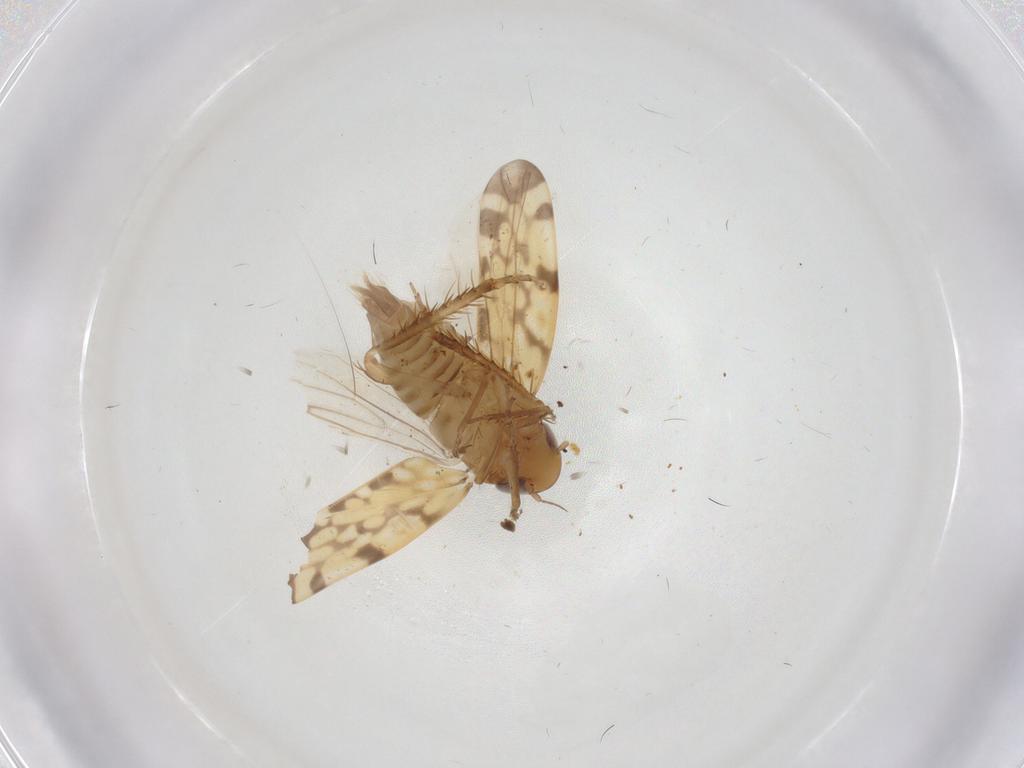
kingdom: Animalia
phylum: Arthropoda
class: Insecta
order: Hemiptera
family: Cicadellidae
